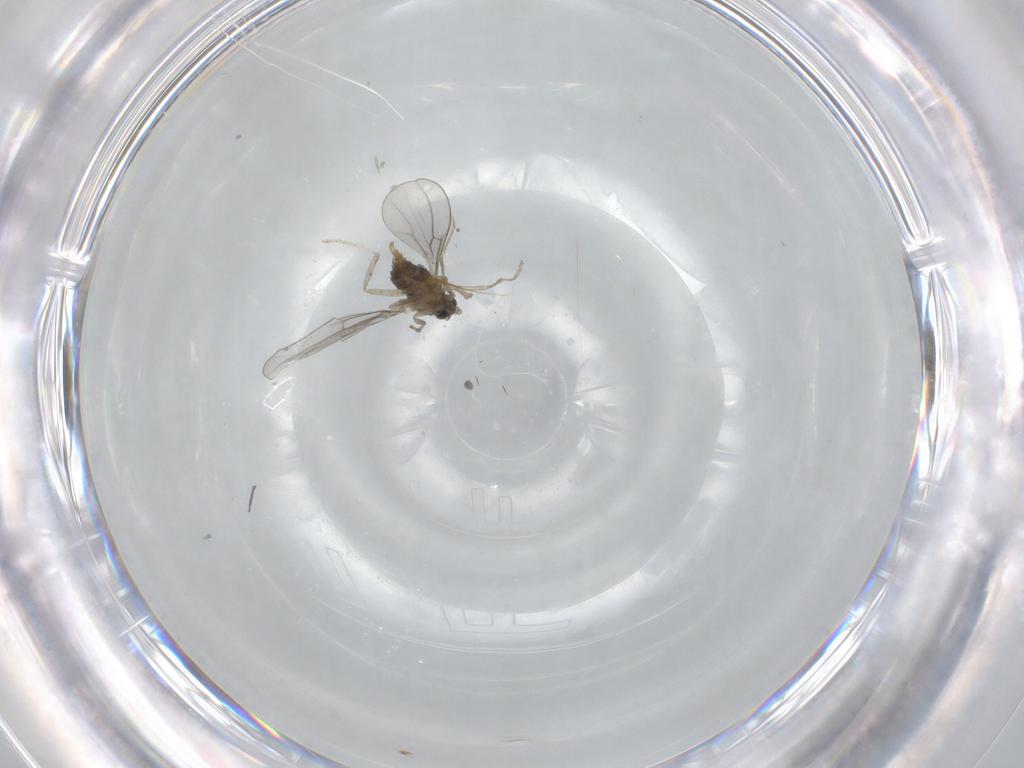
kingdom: Animalia
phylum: Arthropoda
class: Insecta
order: Diptera
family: Cecidomyiidae
